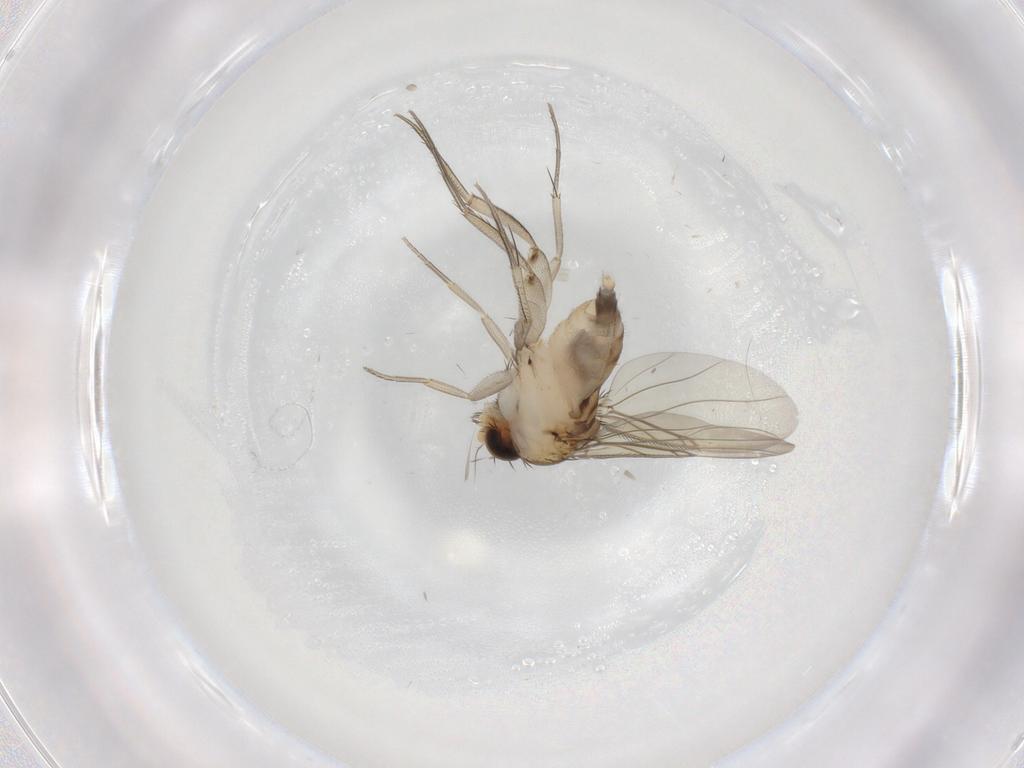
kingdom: Animalia
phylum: Arthropoda
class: Insecta
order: Diptera
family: Phoridae
